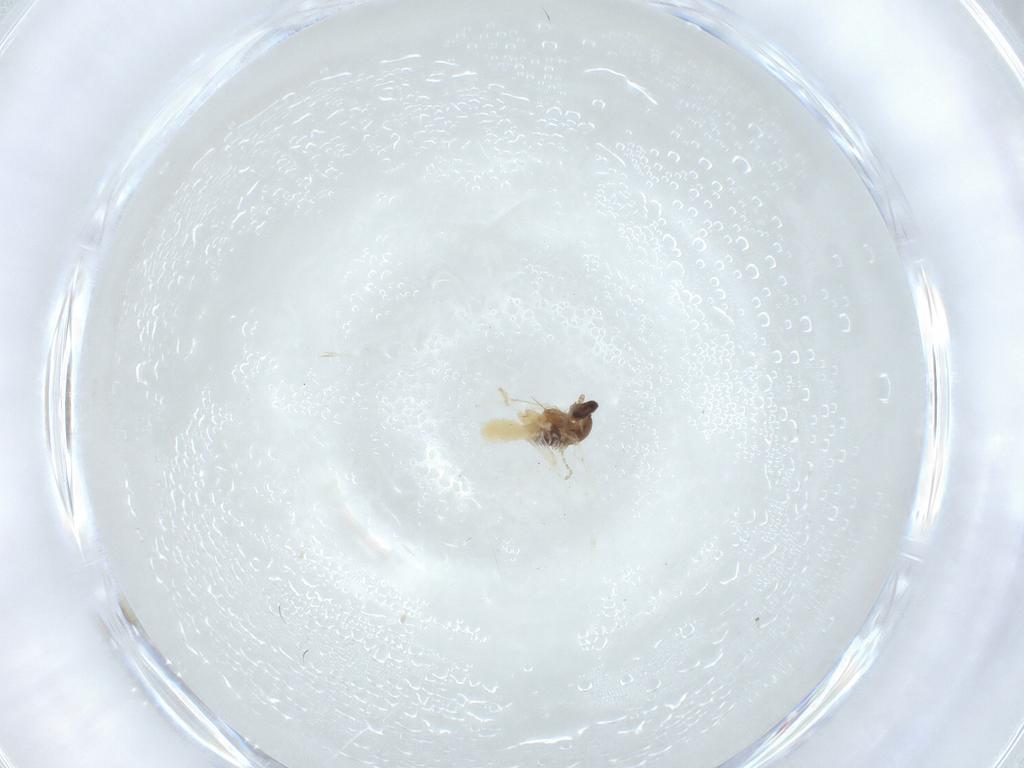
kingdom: Animalia
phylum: Arthropoda
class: Insecta
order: Diptera
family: Cecidomyiidae
